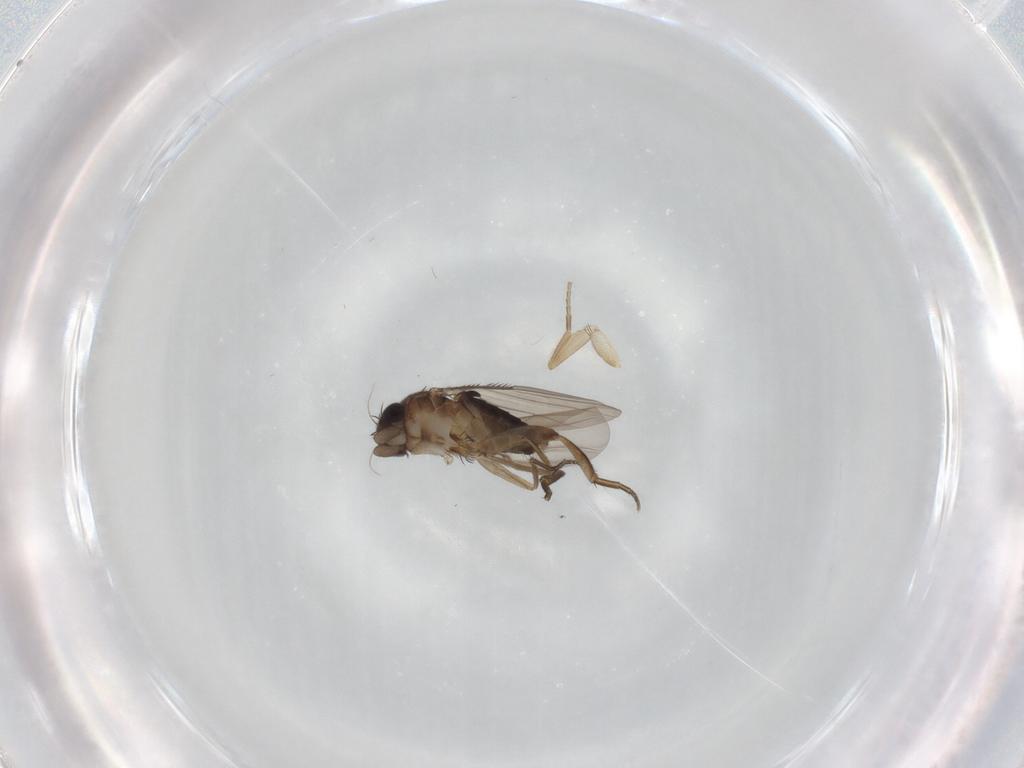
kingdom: Animalia
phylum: Arthropoda
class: Insecta
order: Diptera
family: Phoridae
